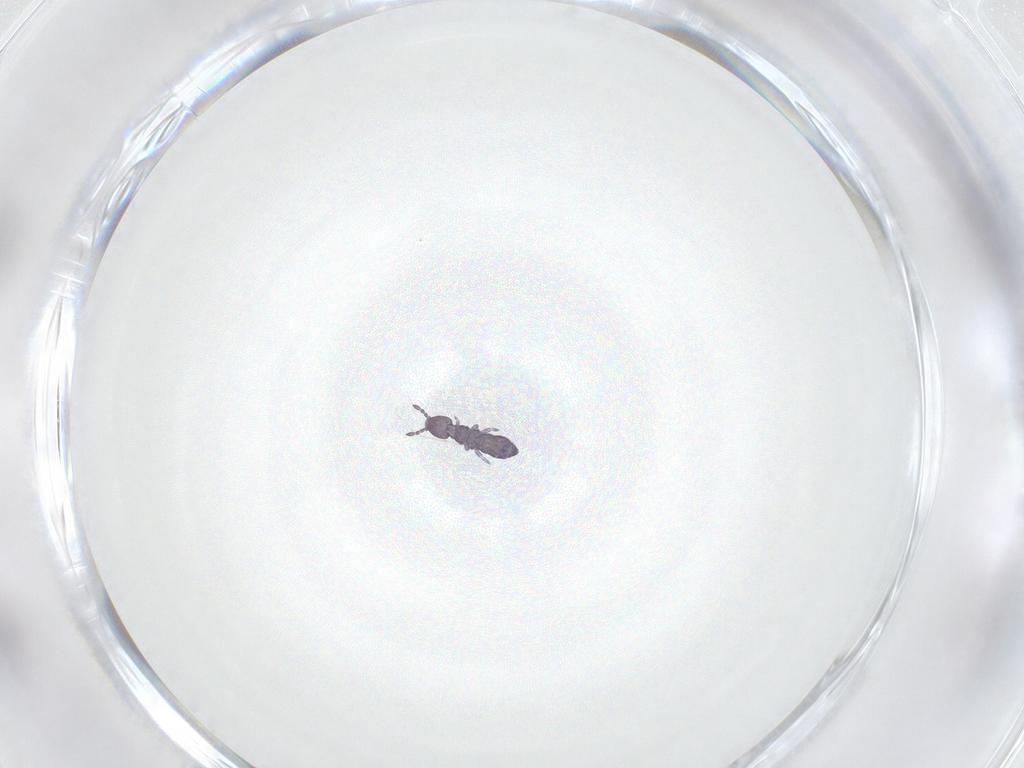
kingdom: Animalia
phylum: Arthropoda
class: Collembola
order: Entomobryomorpha
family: Isotomidae
